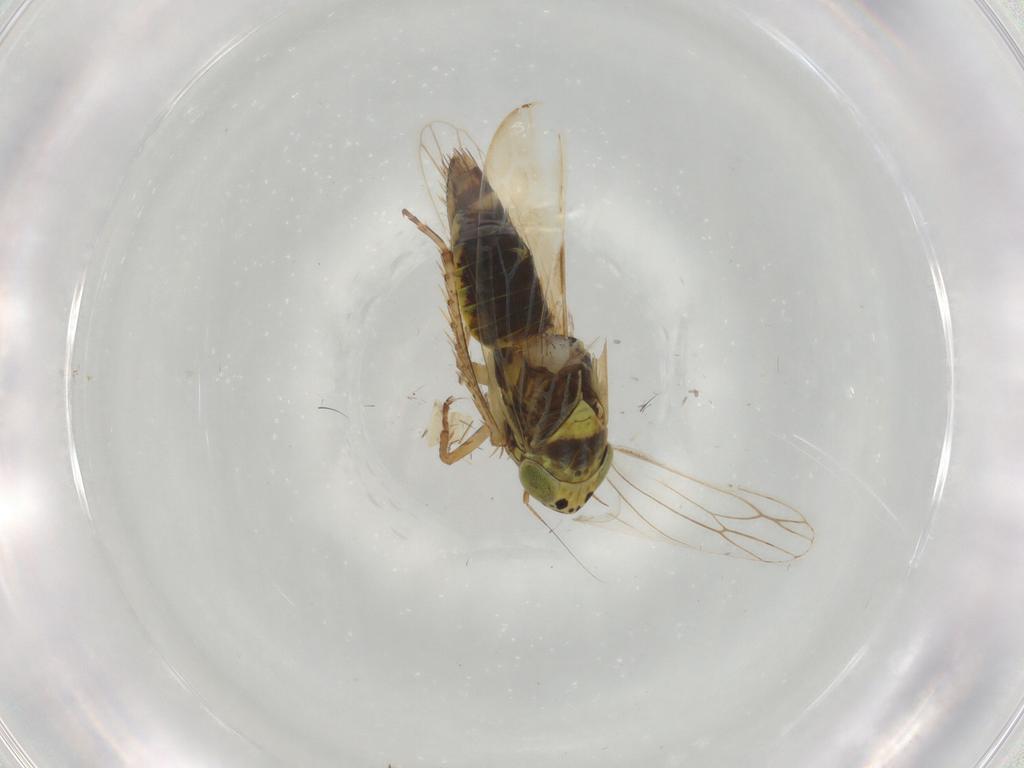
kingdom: Animalia
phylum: Arthropoda
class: Insecta
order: Hemiptera
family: Cicadellidae
